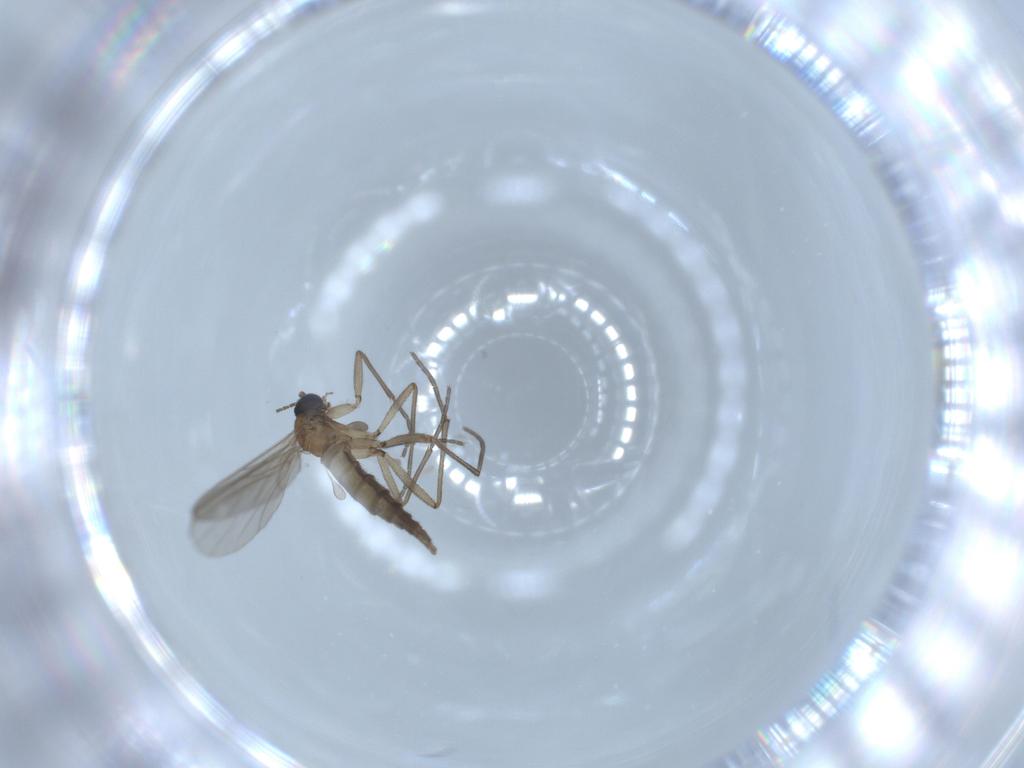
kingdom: Animalia
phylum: Arthropoda
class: Insecta
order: Diptera
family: Sciaridae
